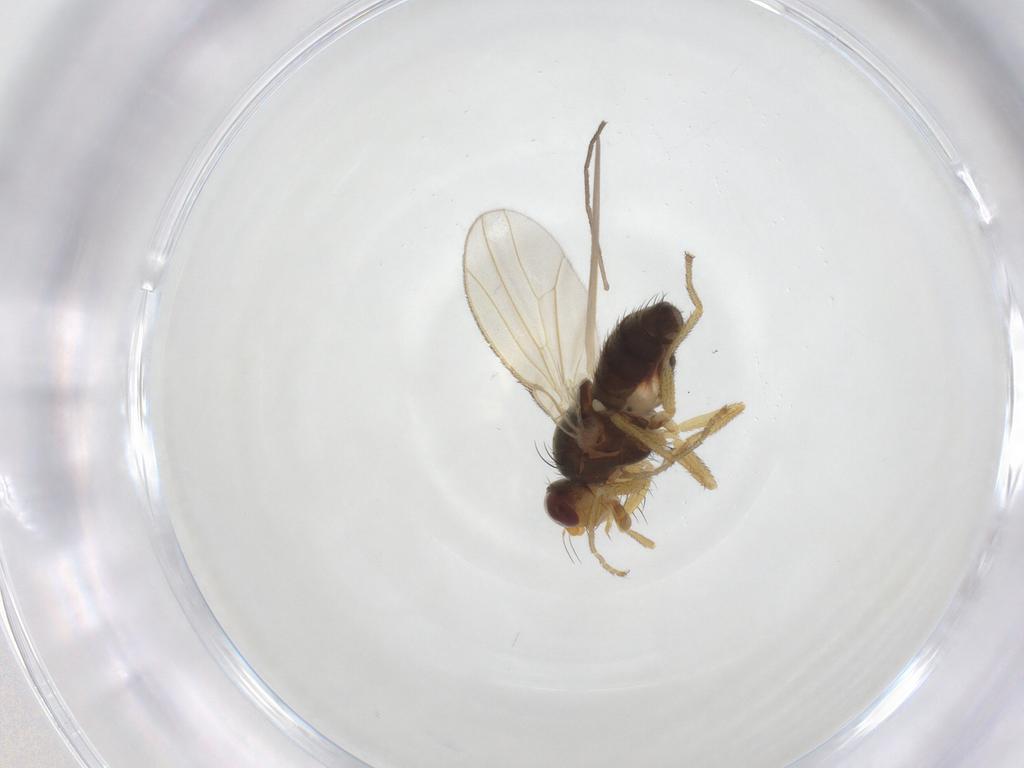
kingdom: Animalia
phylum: Arthropoda
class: Insecta
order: Diptera
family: Heleomyzidae
